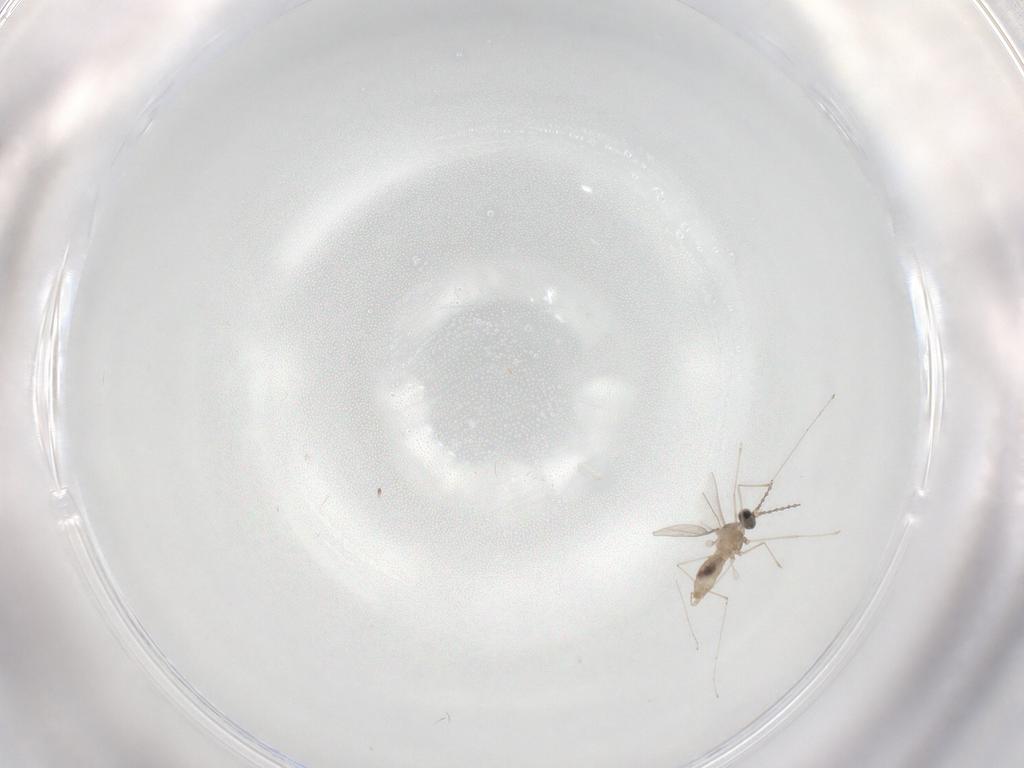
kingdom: Animalia
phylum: Arthropoda
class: Insecta
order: Diptera
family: Cecidomyiidae
